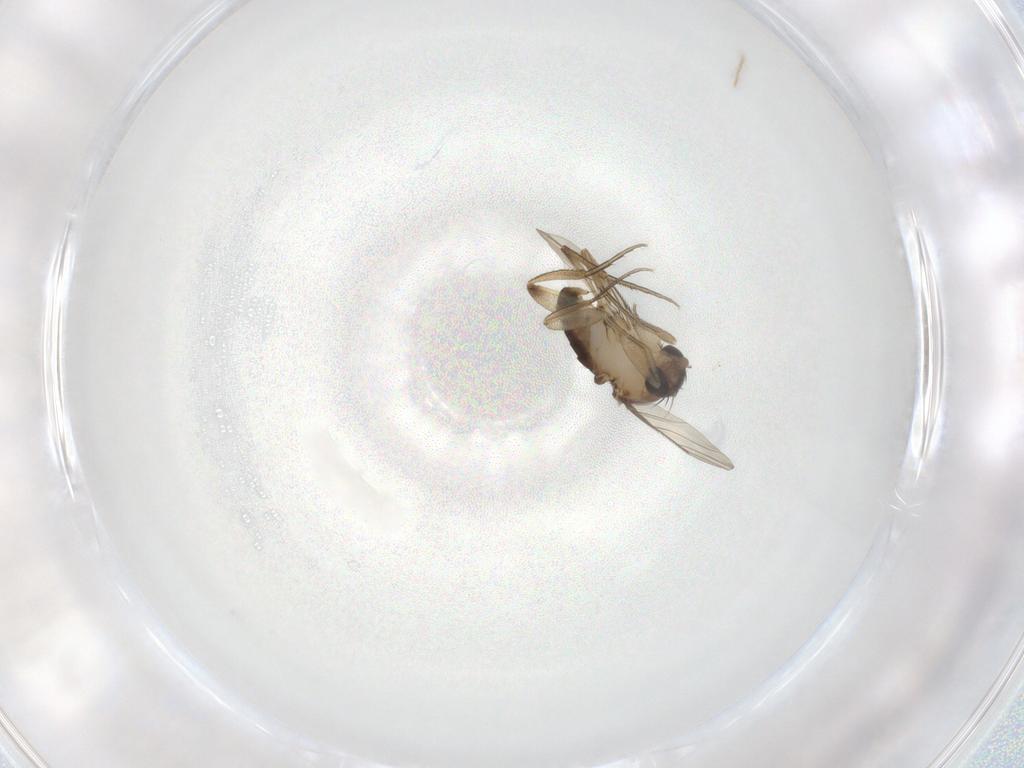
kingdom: Animalia
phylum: Arthropoda
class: Insecta
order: Diptera
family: Phoridae
